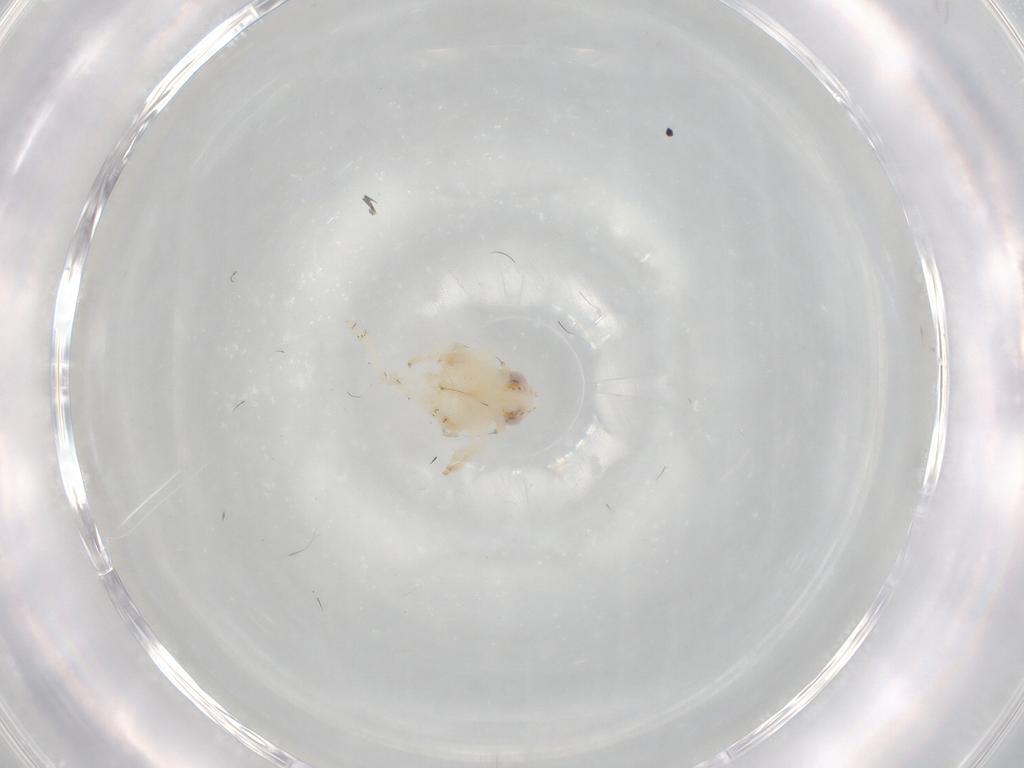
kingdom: Animalia
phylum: Arthropoda
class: Insecta
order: Hemiptera
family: Nogodinidae
